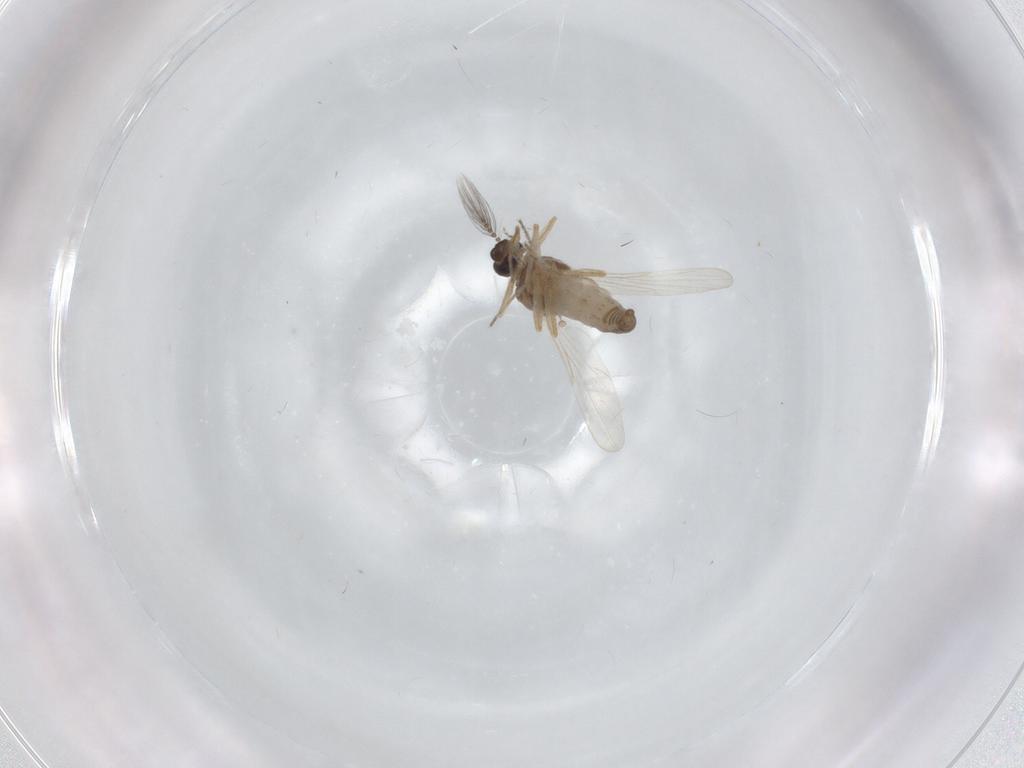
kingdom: Animalia
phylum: Arthropoda
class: Insecta
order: Diptera
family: Ceratopogonidae
